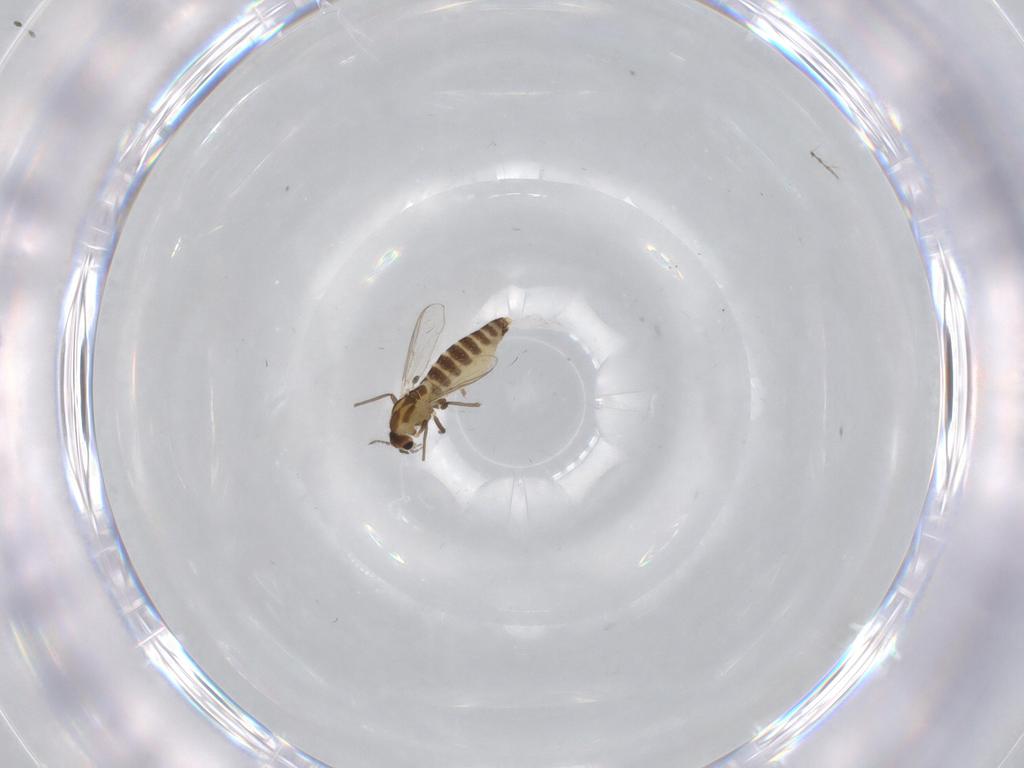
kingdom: Animalia
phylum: Arthropoda
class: Insecta
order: Diptera
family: Chironomidae
